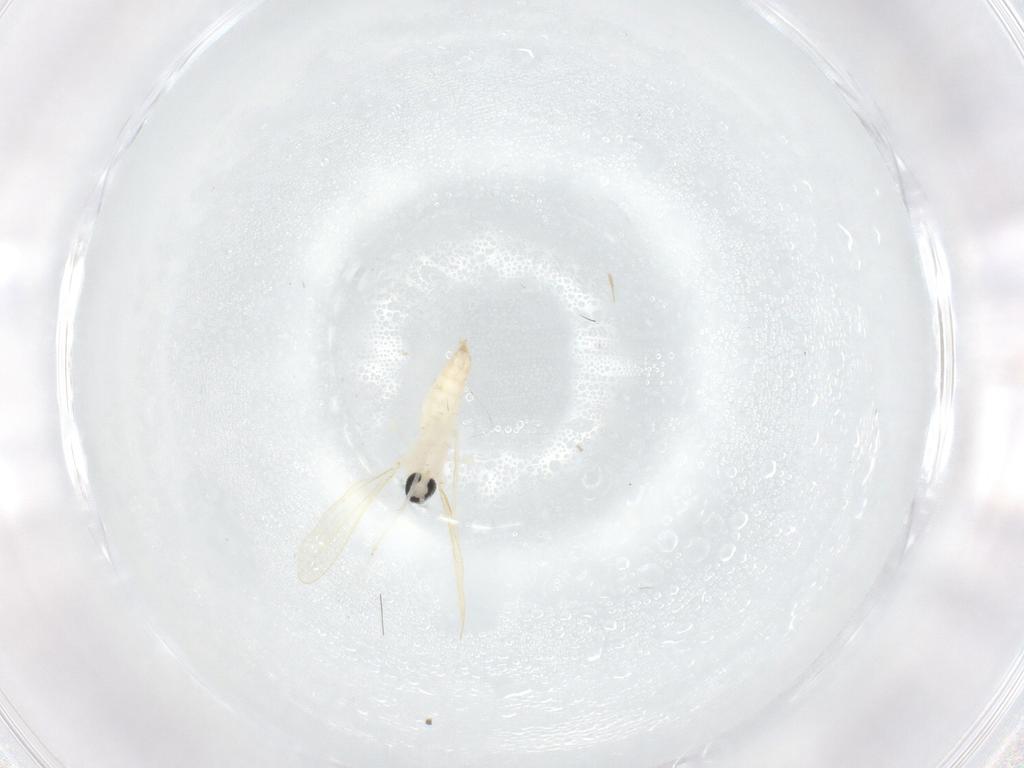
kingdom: Animalia
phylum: Arthropoda
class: Insecta
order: Diptera
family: Cecidomyiidae
